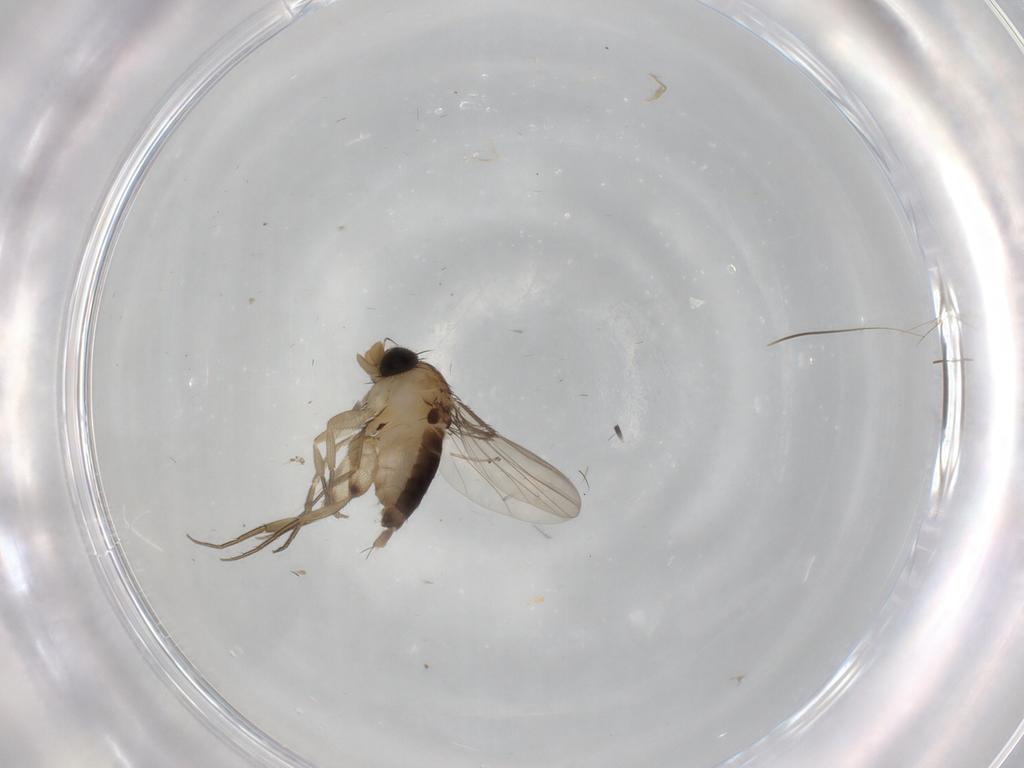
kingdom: Animalia
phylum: Arthropoda
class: Insecta
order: Diptera
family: Phoridae
